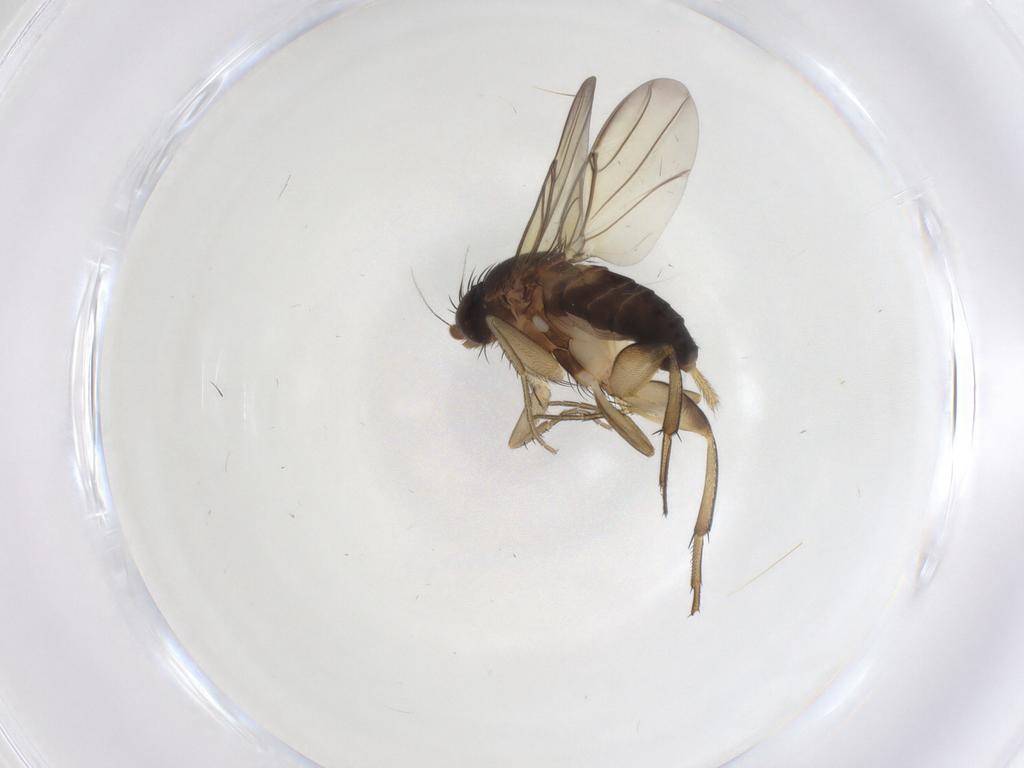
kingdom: Animalia
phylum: Arthropoda
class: Insecta
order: Diptera
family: Phoridae
